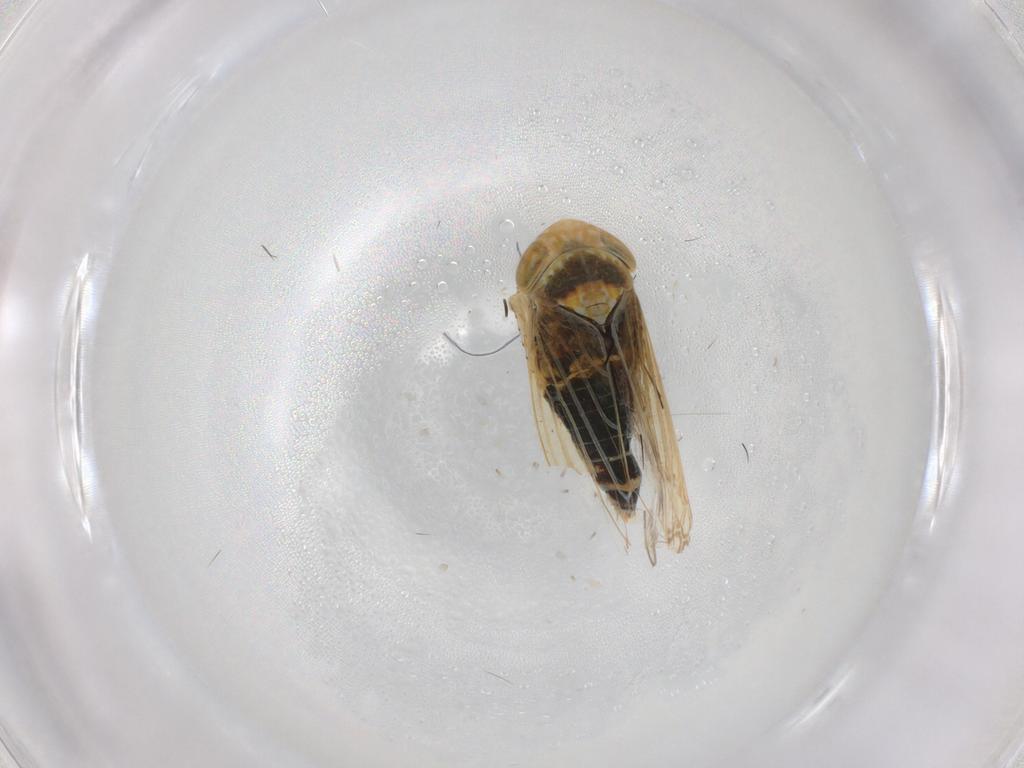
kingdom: Animalia
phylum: Arthropoda
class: Insecta
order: Hemiptera
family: Cicadellidae
